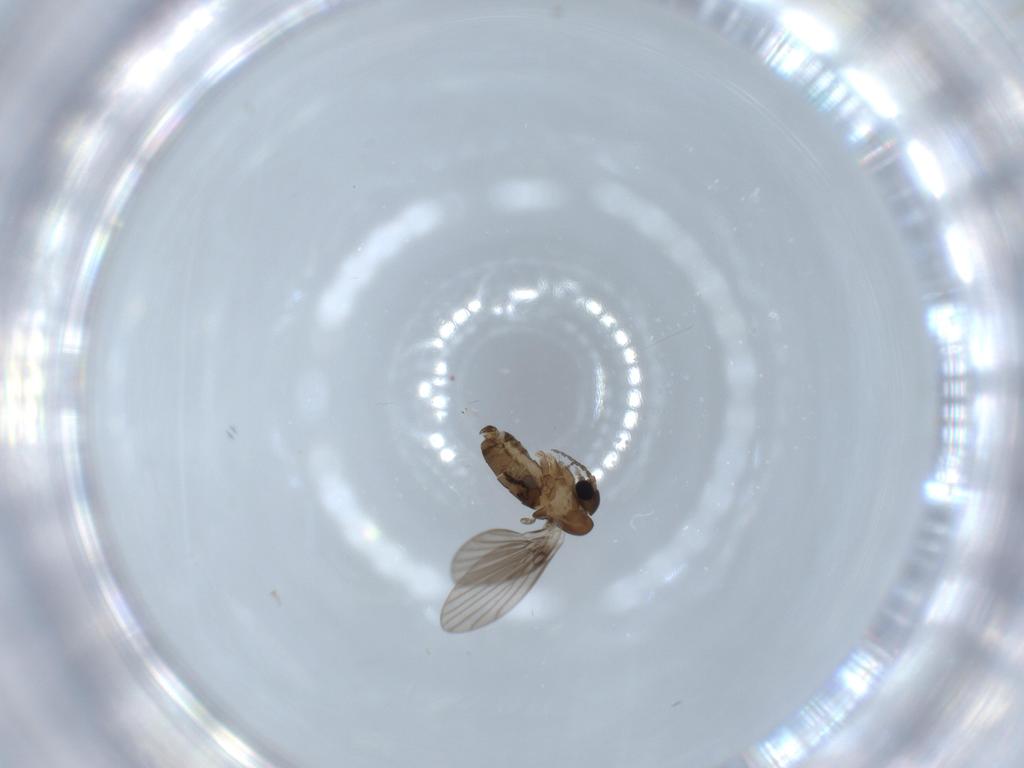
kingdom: Animalia
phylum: Arthropoda
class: Insecta
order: Diptera
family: Psychodidae
